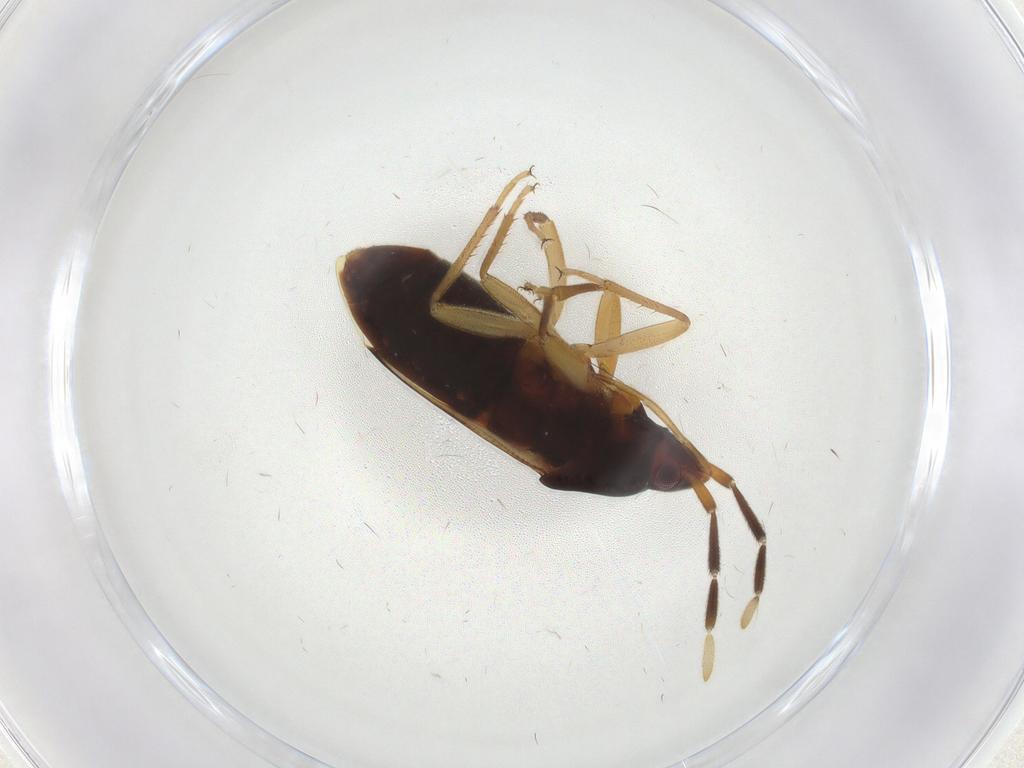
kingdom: Animalia
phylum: Arthropoda
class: Insecta
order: Hemiptera
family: Rhyparochromidae
